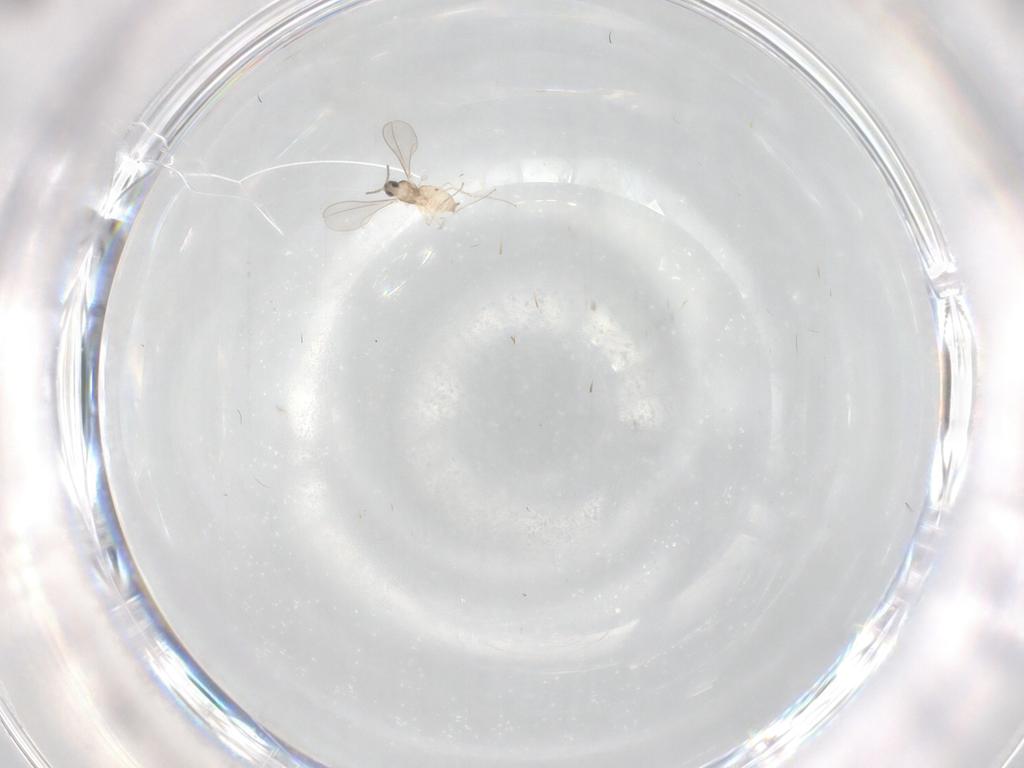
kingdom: Animalia
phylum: Arthropoda
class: Insecta
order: Diptera
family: Cecidomyiidae
